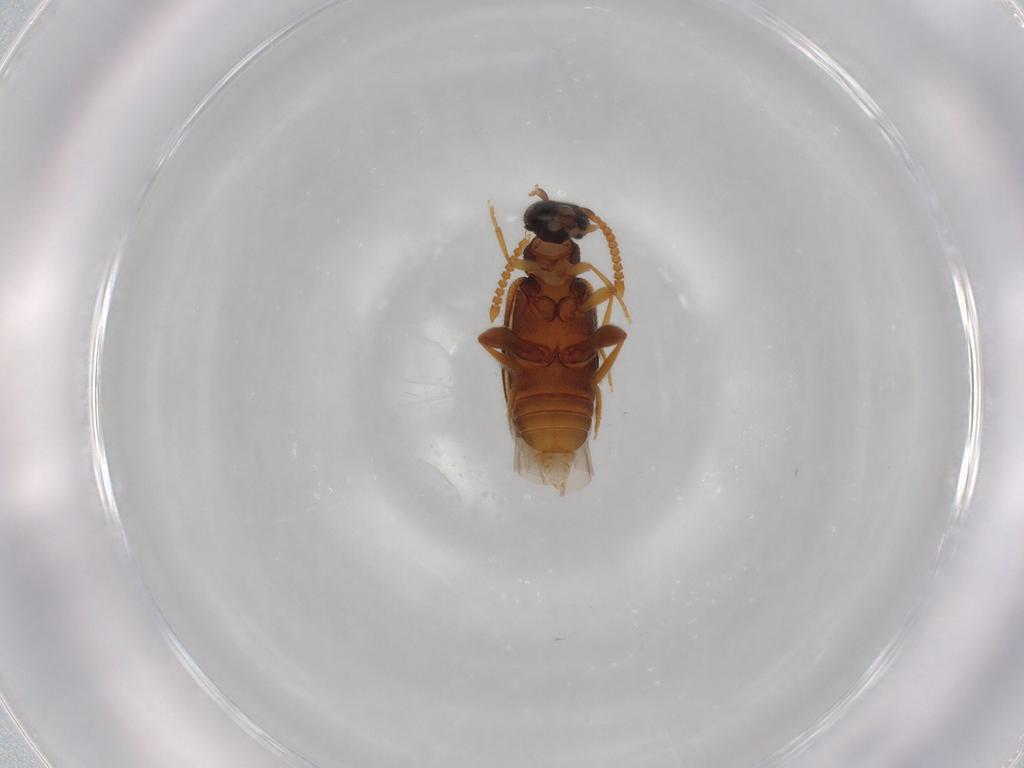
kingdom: Animalia
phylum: Arthropoda
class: Insecta
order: Coleoptera
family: Aderidae
